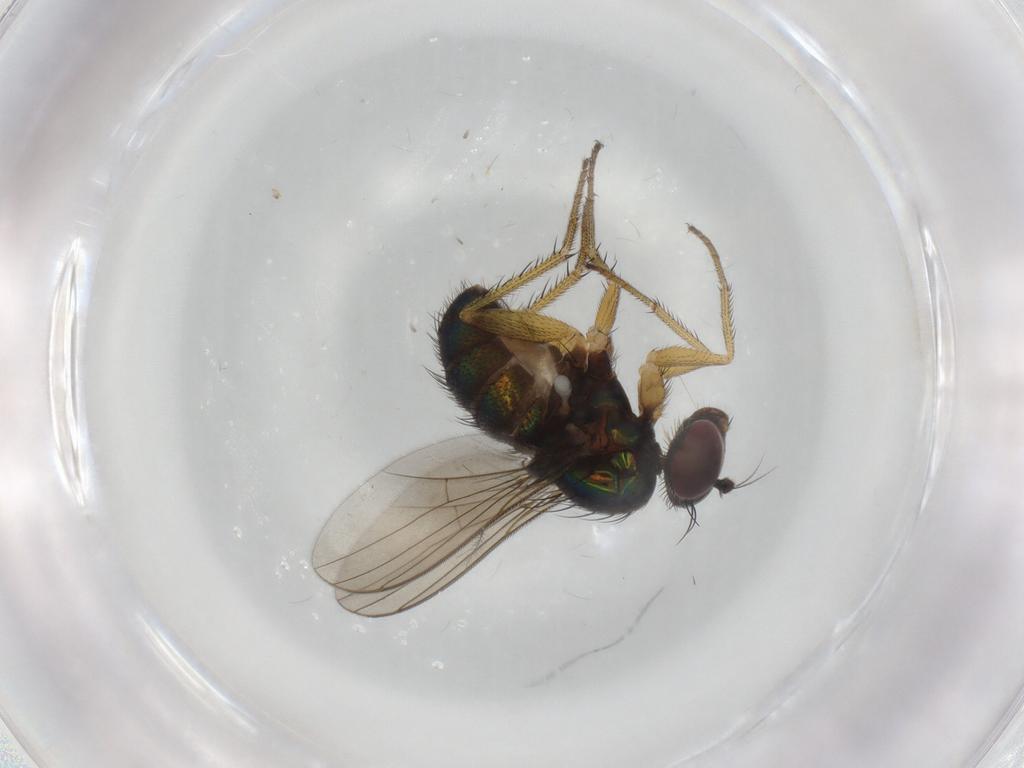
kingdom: Animalia
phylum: Arthropoda
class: Insecta
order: Diptera
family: Dolichopodidae
